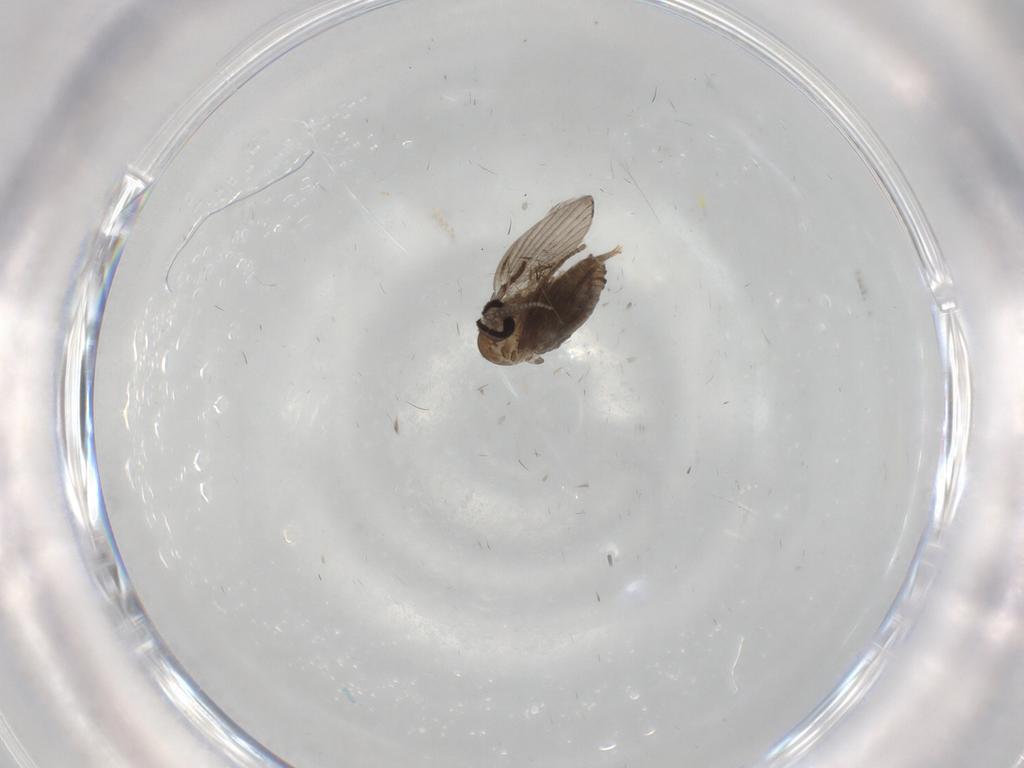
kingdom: Animalia
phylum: Arthropoda
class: Insecta
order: Diptera
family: Psychodidae
